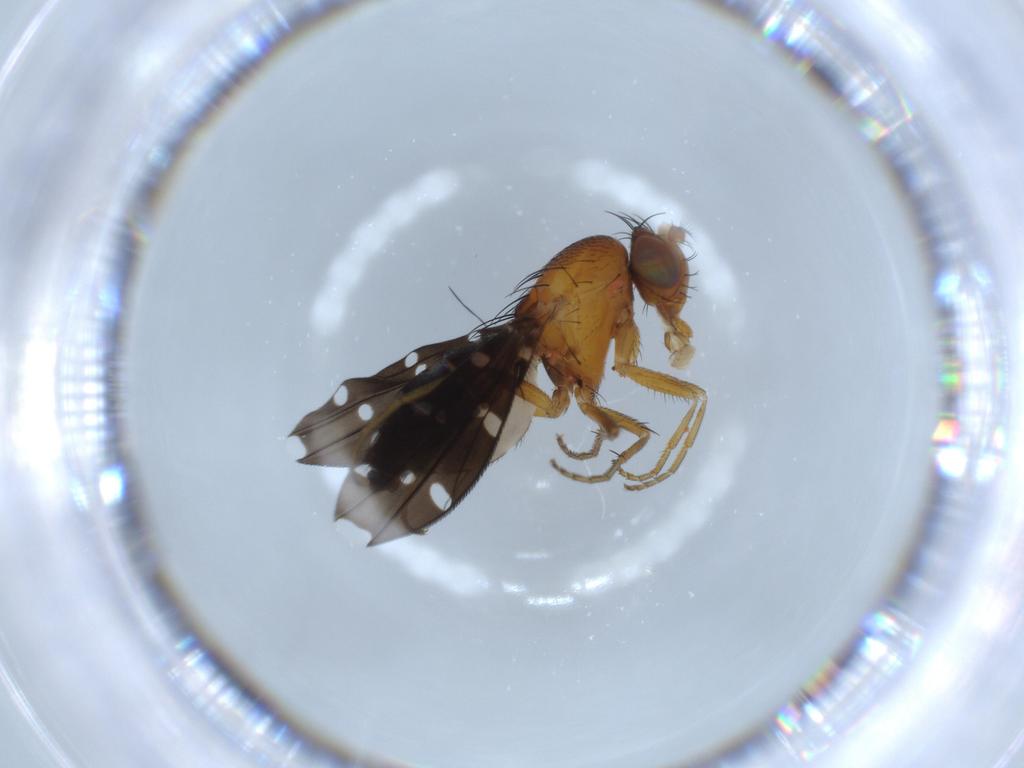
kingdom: Animalia
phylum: Arthropoda
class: Insecta
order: Diptera
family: Ephydridae
